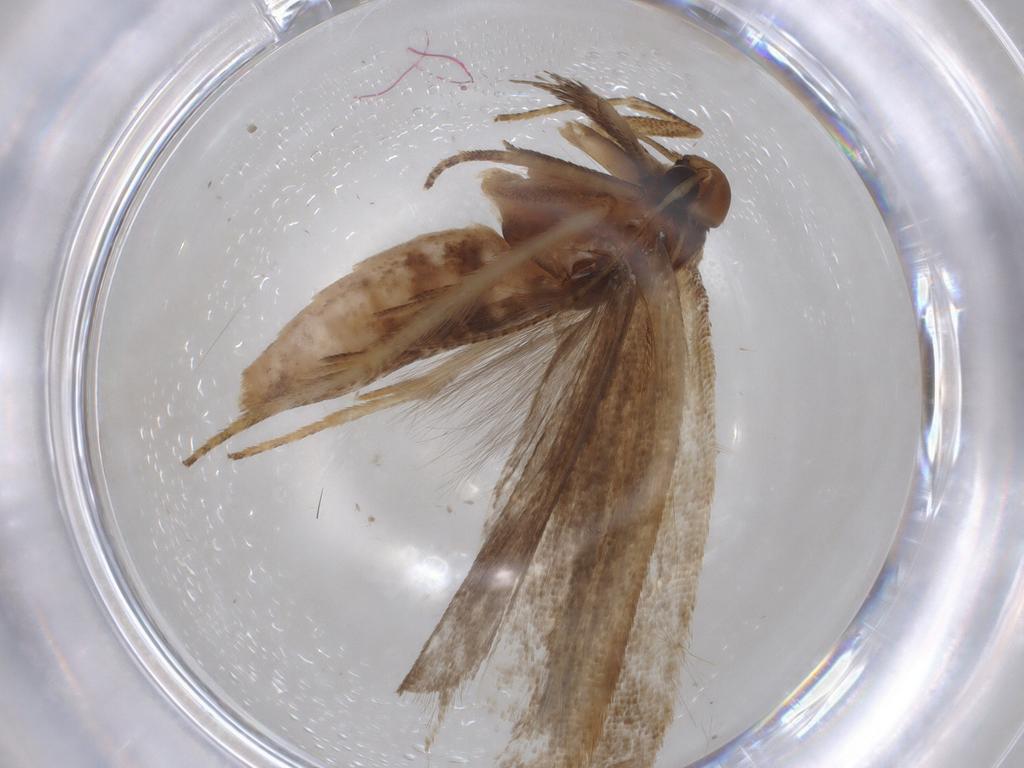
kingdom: Animalia
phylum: Arthropoda
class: Insecta
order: Lepidoptera
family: Gelechiidae
